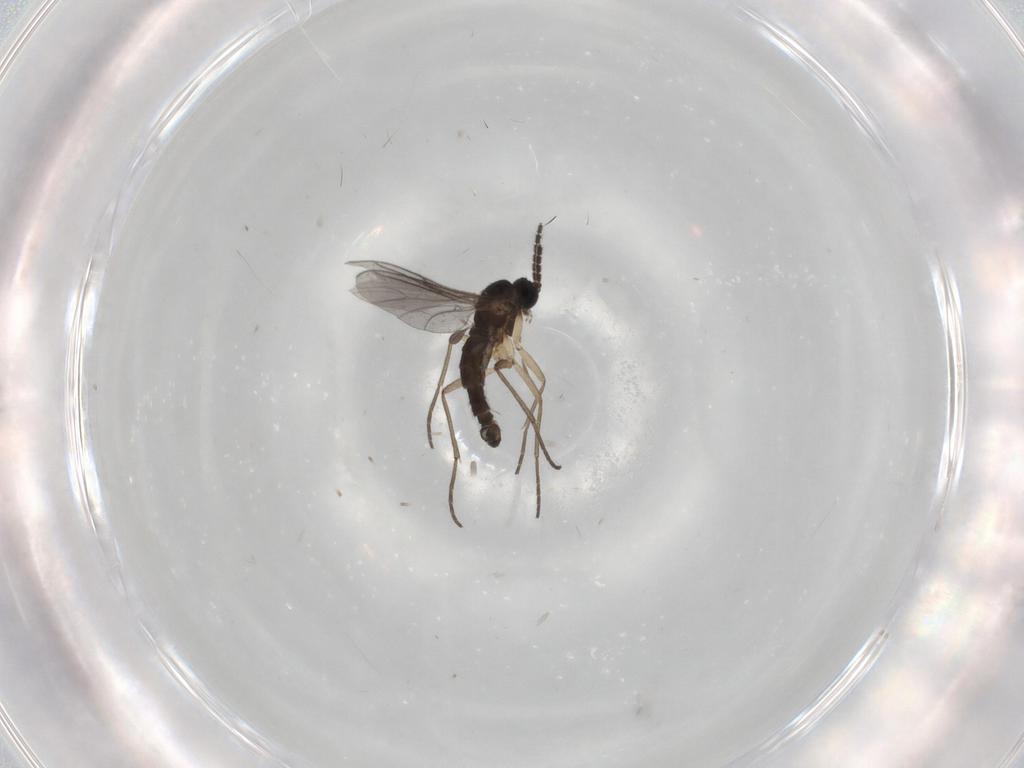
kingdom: Animalia
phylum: Arthropoda
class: Insecta
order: Diptera
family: Sciaridae
